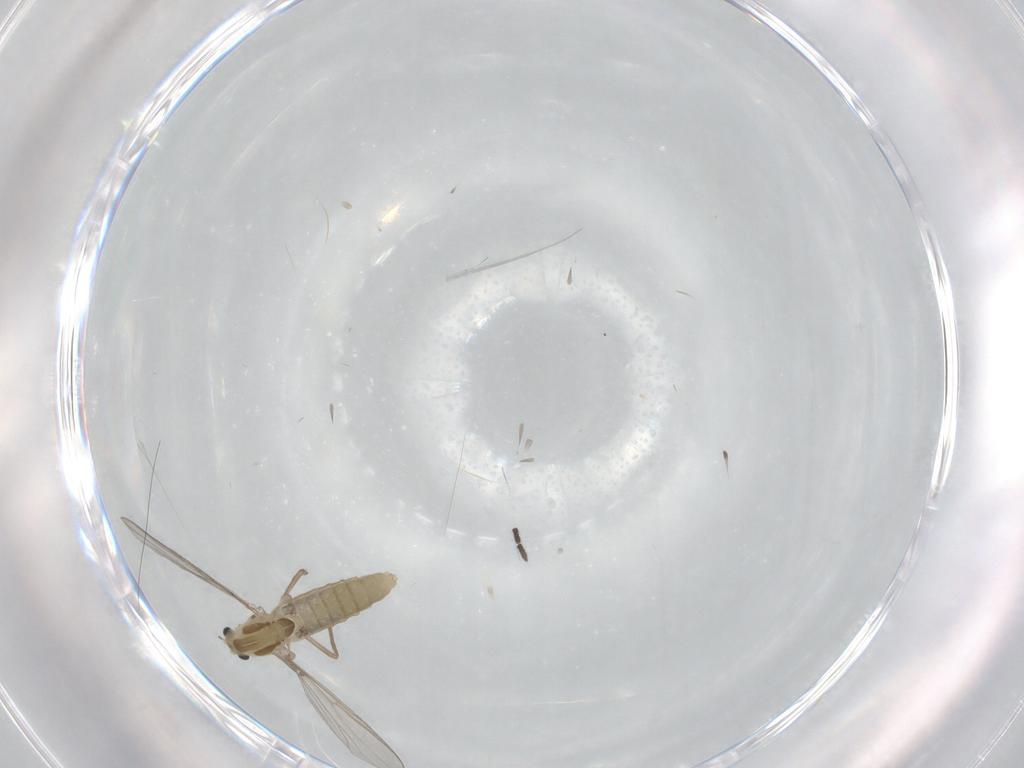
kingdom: Animalia
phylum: Arthropoda
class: Insecta
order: Diptera
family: Chironomidae
